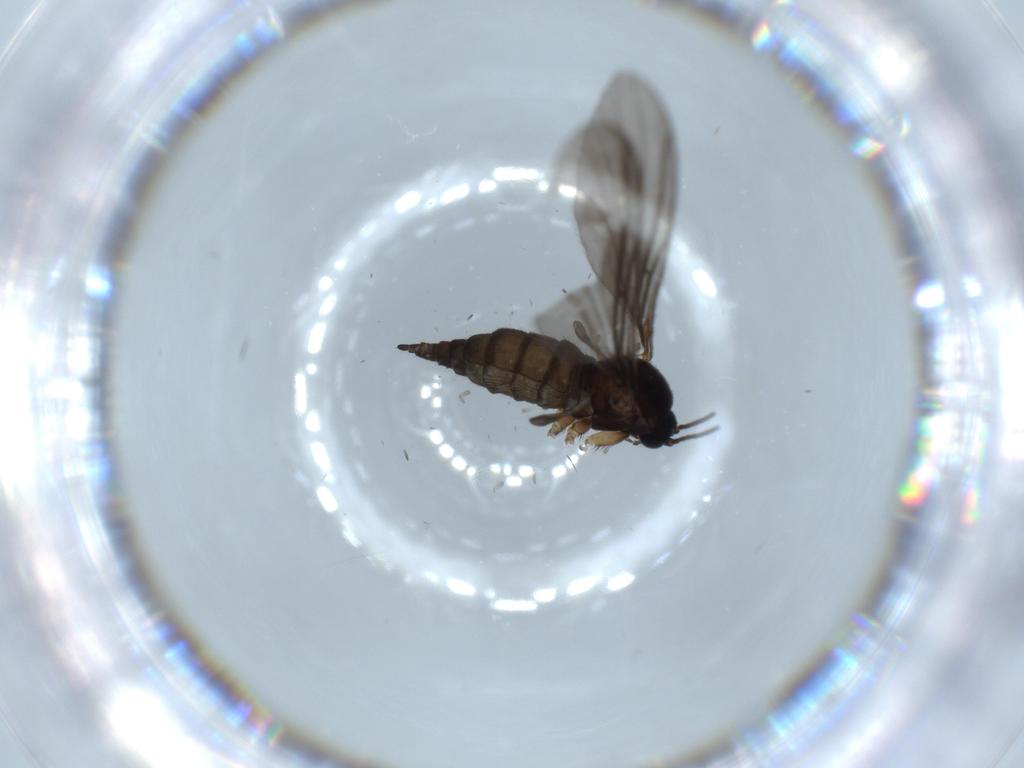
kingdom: Animalia
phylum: Arthropoda
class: Insecta
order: Diptera
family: Sciaridae
